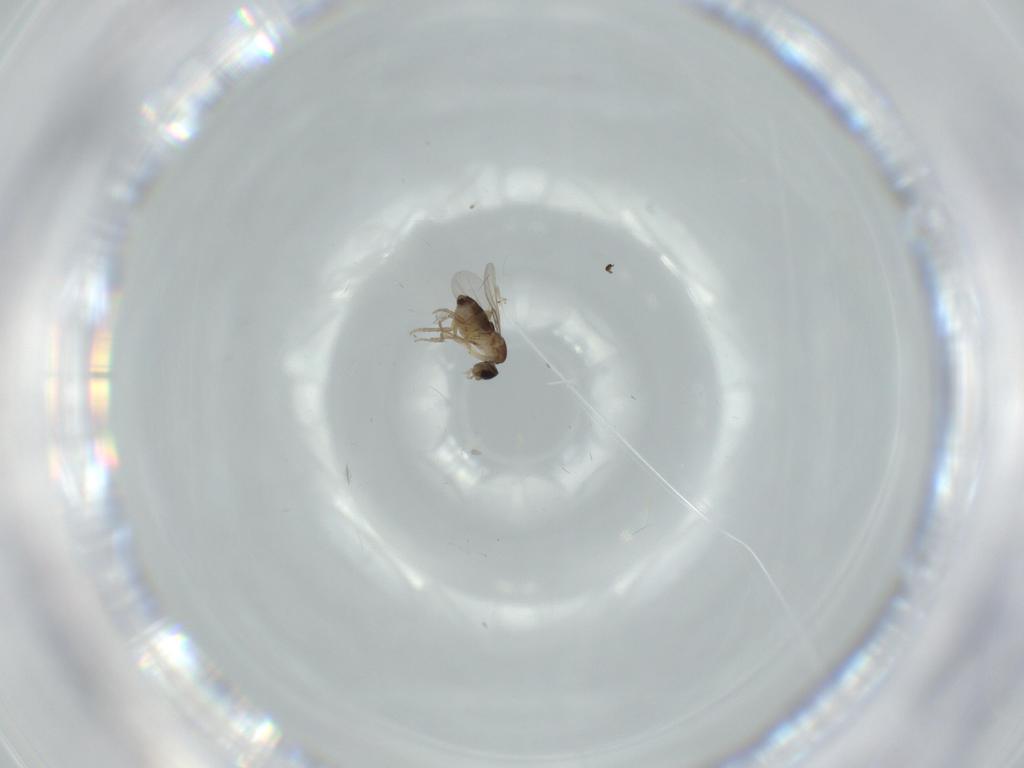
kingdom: Animalia
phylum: Arthropoda
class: Insecta
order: Diptera
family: Phoridae
